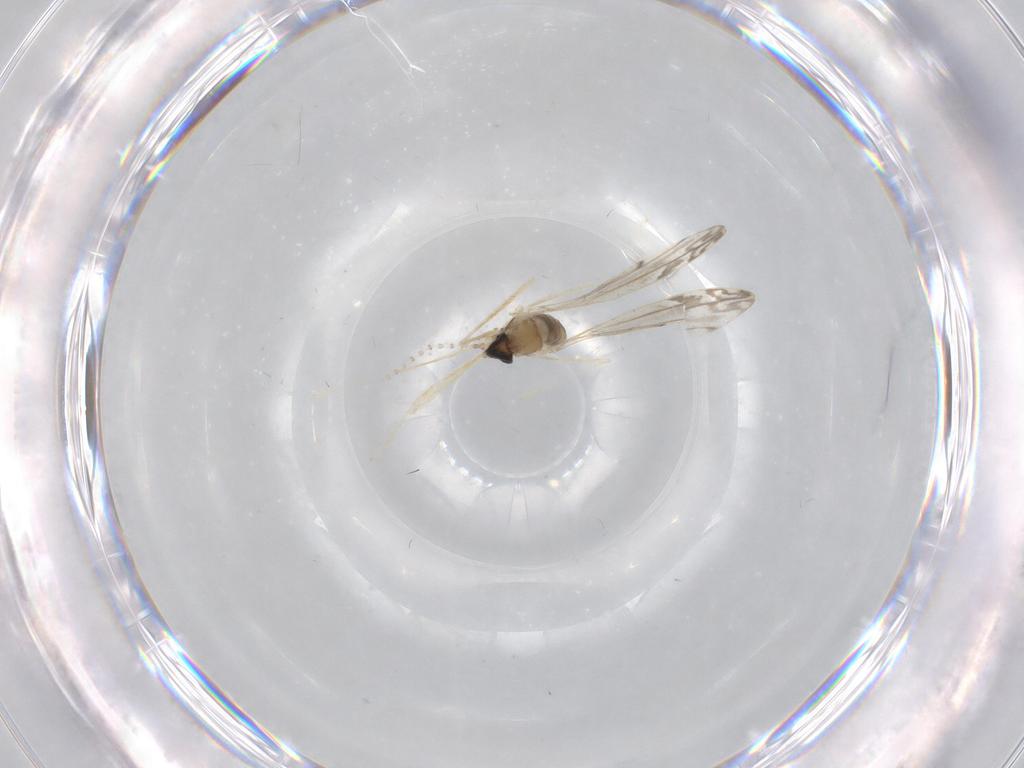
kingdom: Animalia
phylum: Arthropoda
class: Insecta
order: Diptera
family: Cecidomyiidae
